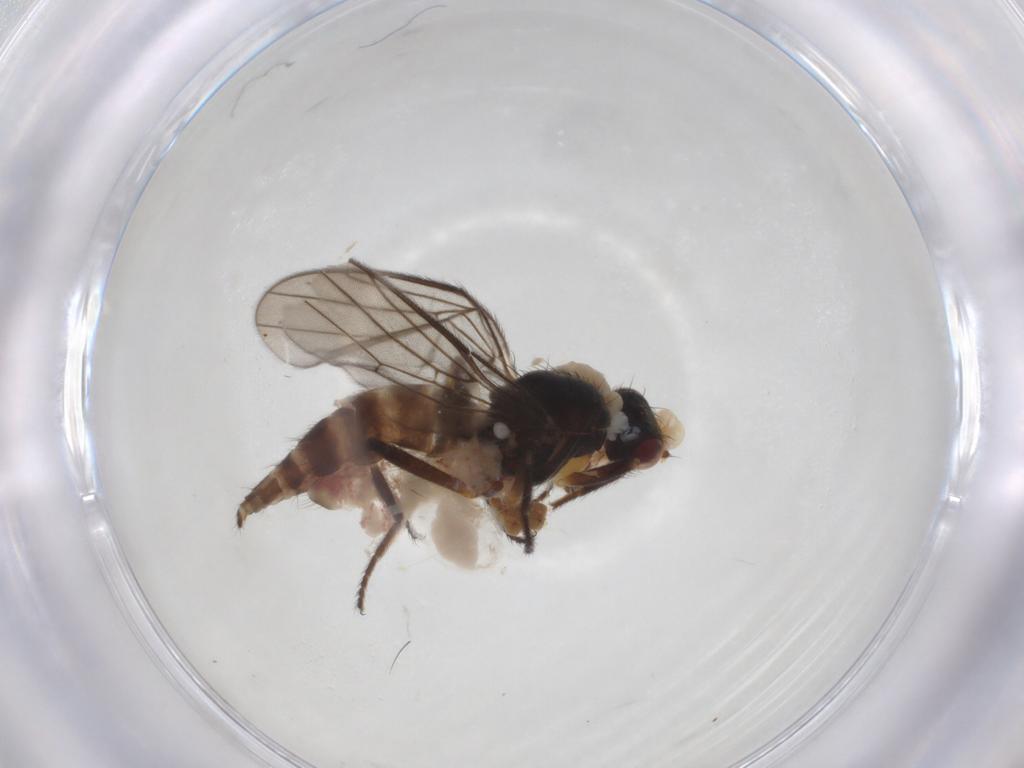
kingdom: Animalia
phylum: Arthropoda
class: Insecta
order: Diptera
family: Chloropidae
